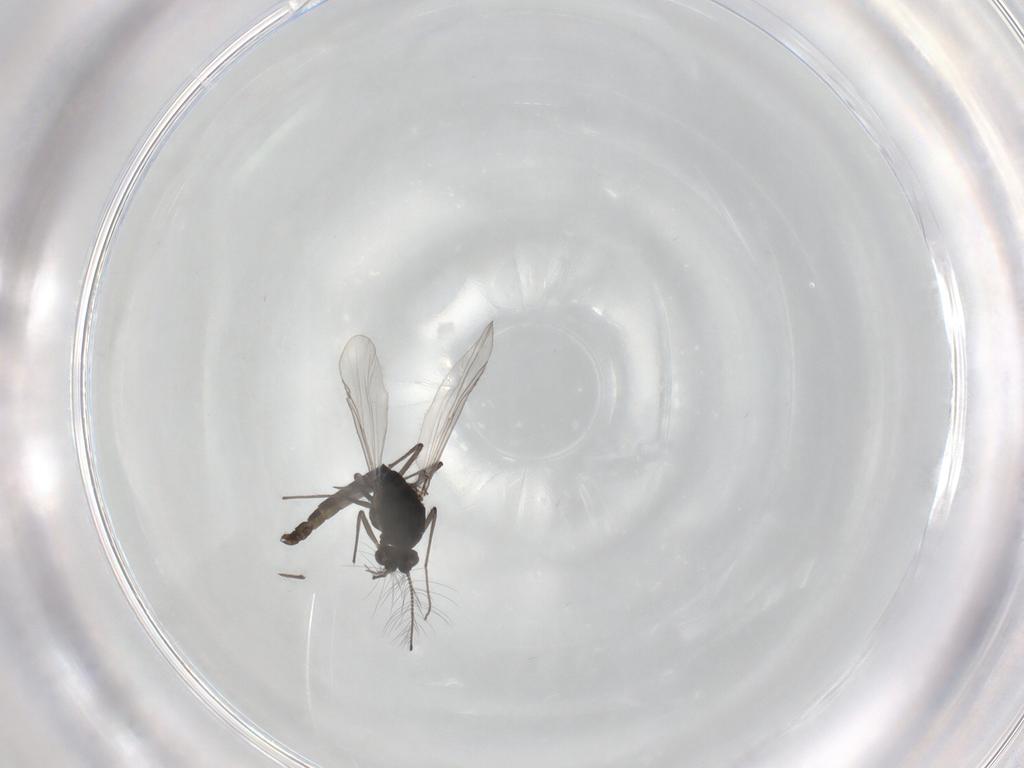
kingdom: Animalia
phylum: Arthropoda
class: Insecta
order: Diptera
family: Chironomidae
